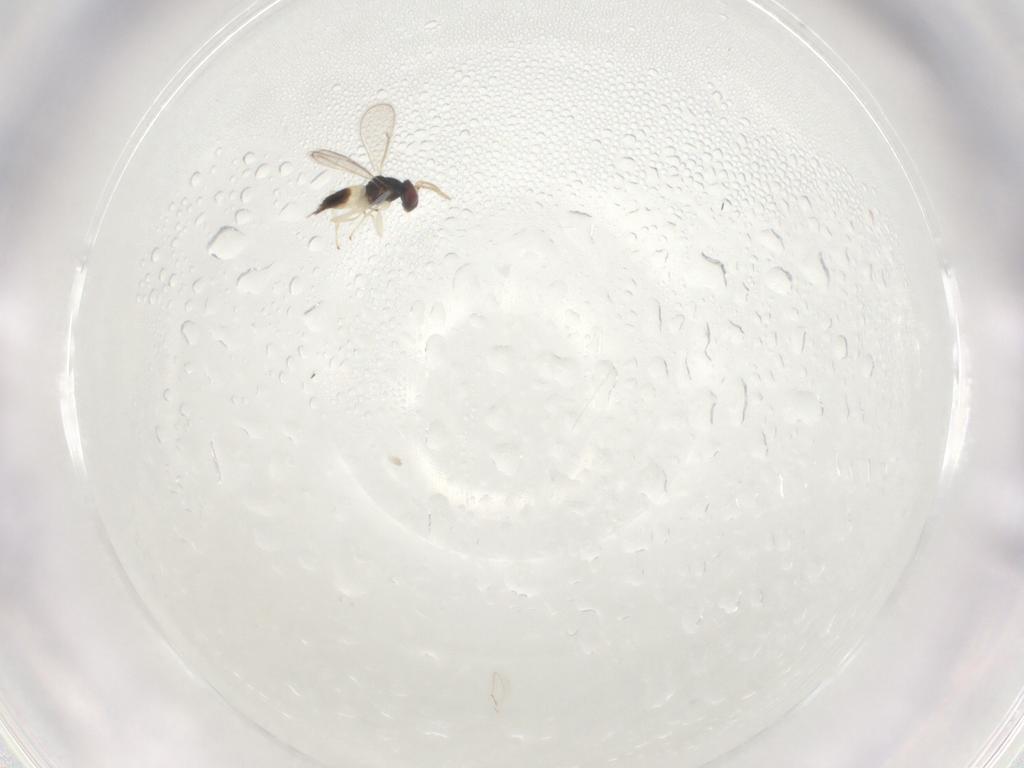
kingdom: Animalia
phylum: Arthropoda
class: Insecta
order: Hymenoptera
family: Eulophidae
